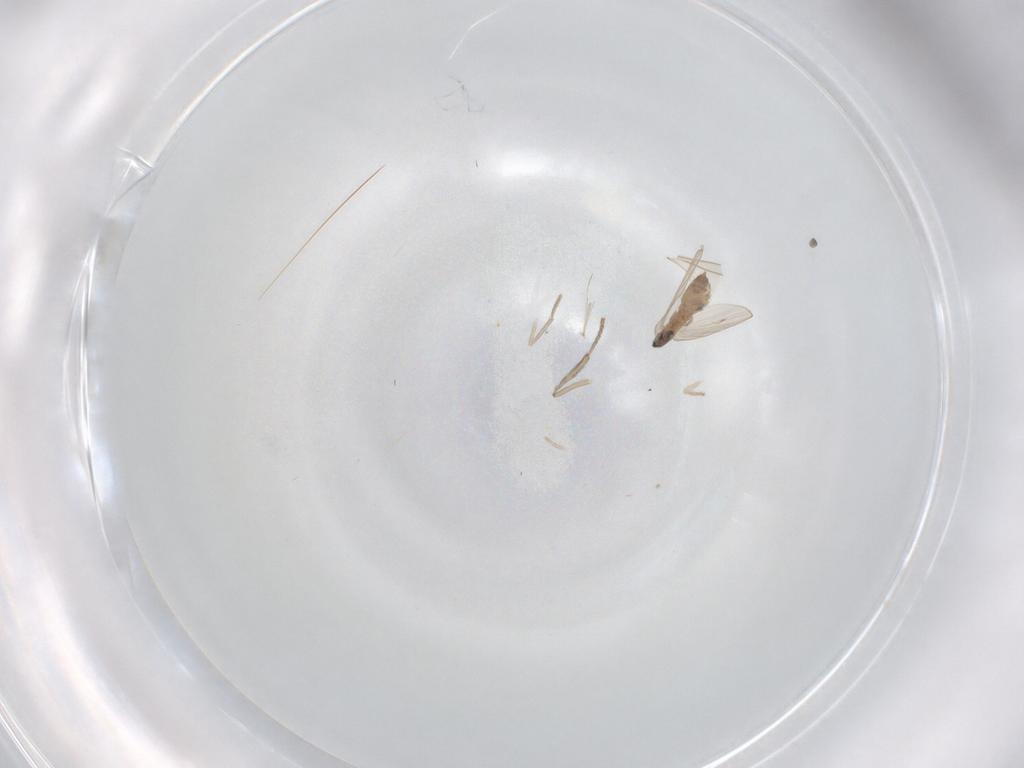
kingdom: Animalia
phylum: Arthropoda
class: Insecta
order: Diptera
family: Psychodidae
